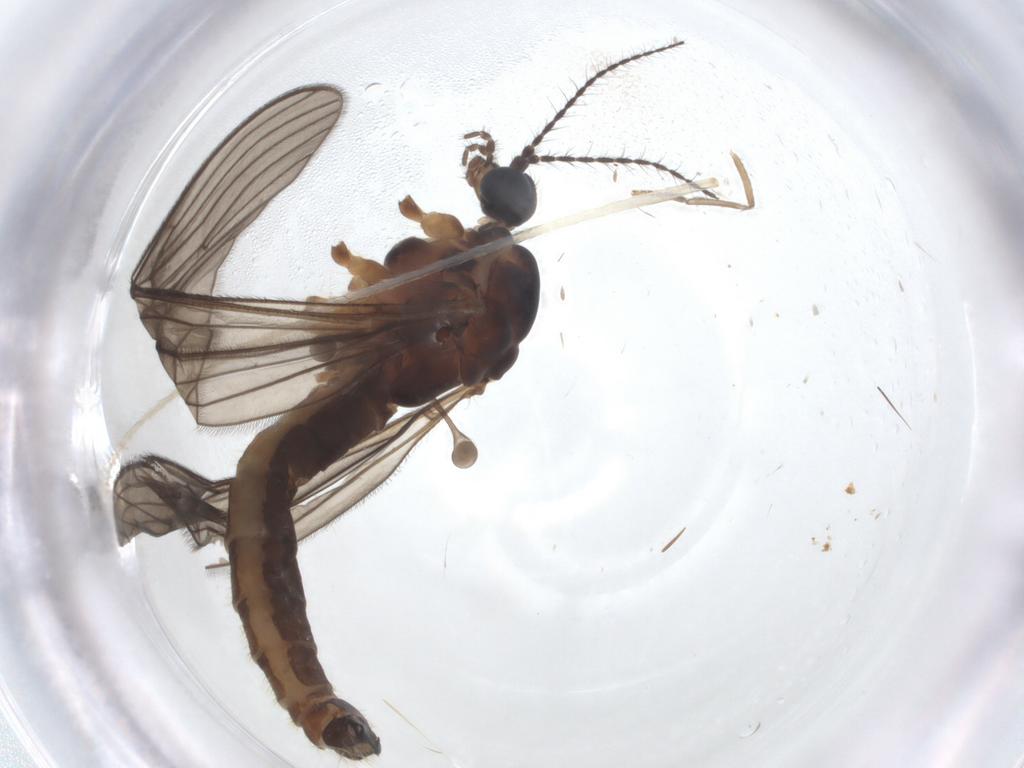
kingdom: Animalia
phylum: Arthropoda
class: Insecta
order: Diptera
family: Limoniidae
